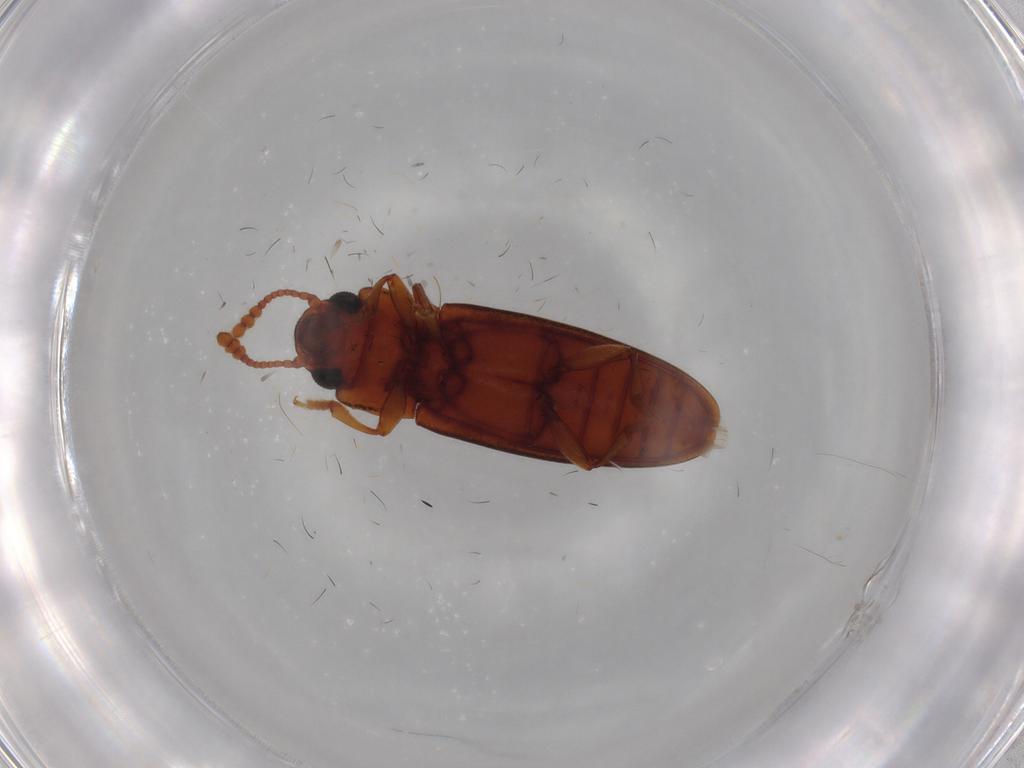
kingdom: Animalia
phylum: Arthropoda
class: Insecta
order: Coleoptera
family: Erotylidae
